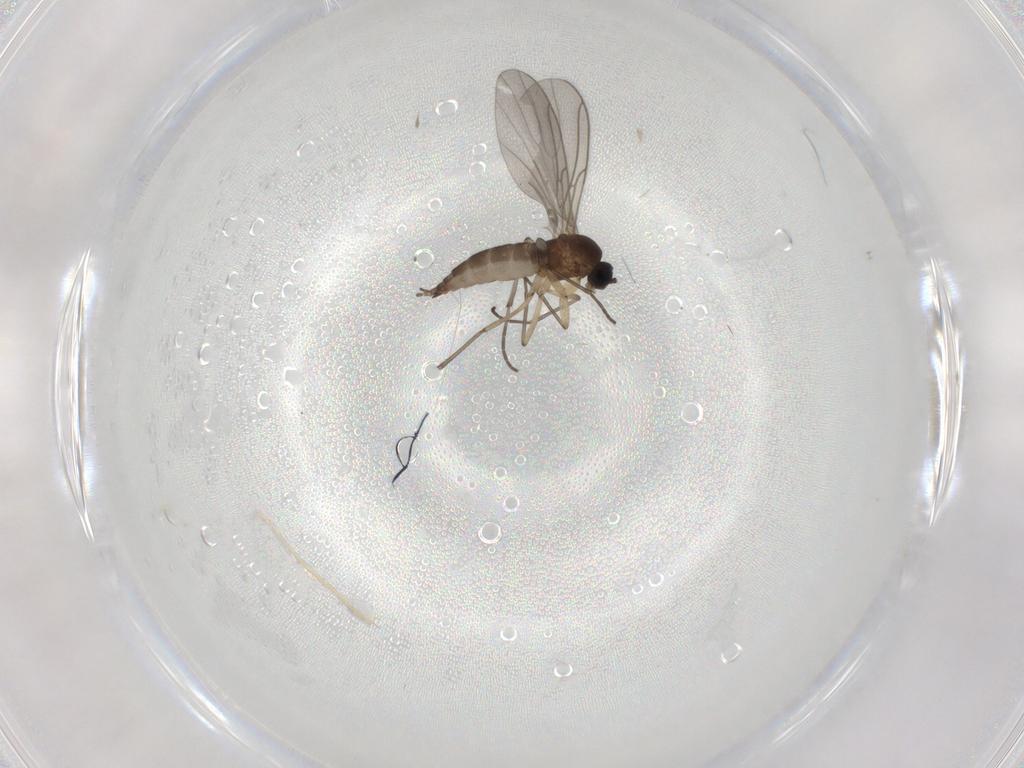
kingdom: Animalia
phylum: Arthropoda
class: Insecta
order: Diptera
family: Sciaridae
